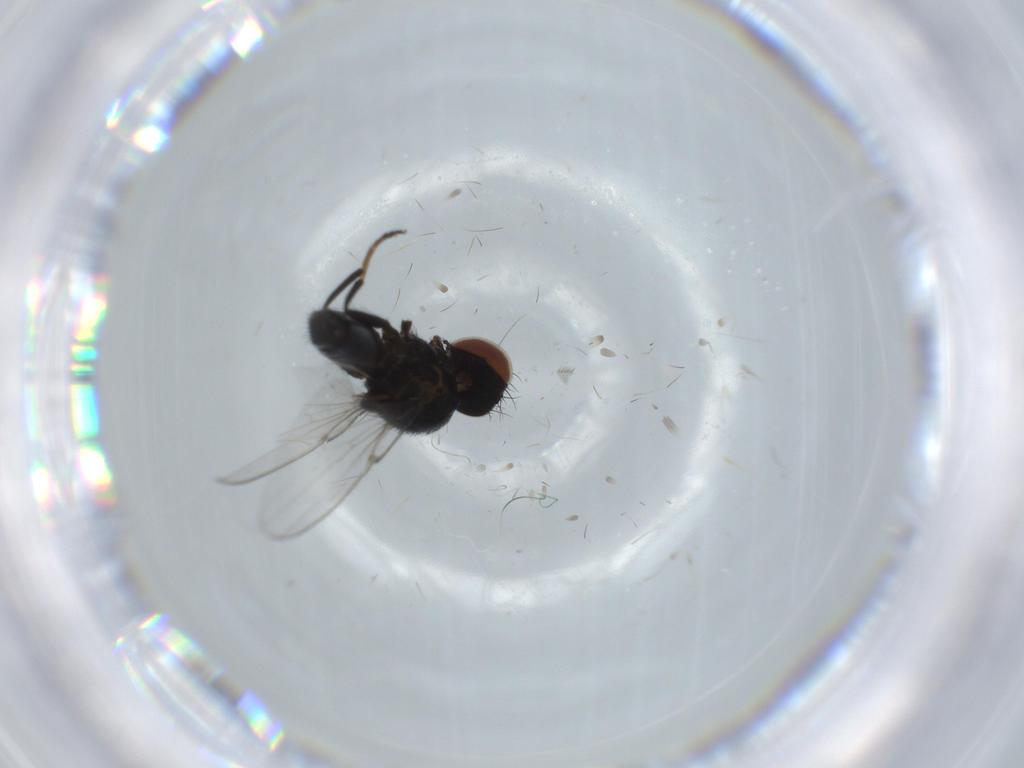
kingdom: Animalia
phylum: Arthropoda
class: Insecta
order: Diptera
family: Milichiidae
